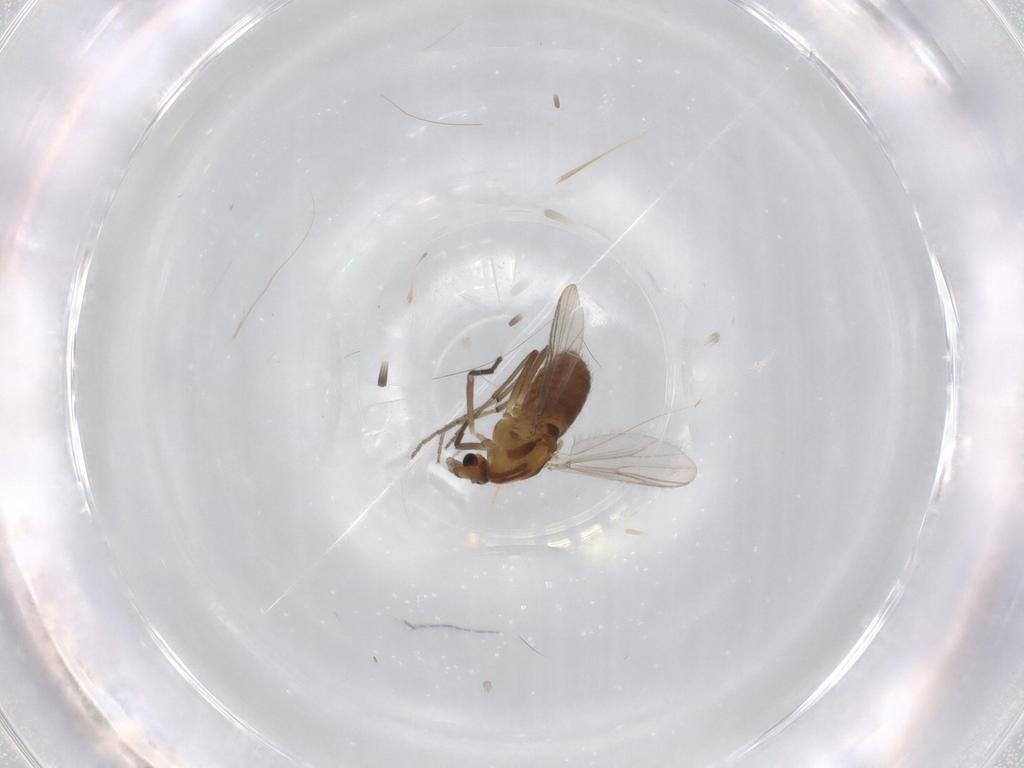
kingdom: Animalia
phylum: Arthropoda
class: Insecta
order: Diptera
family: Chironomidae
